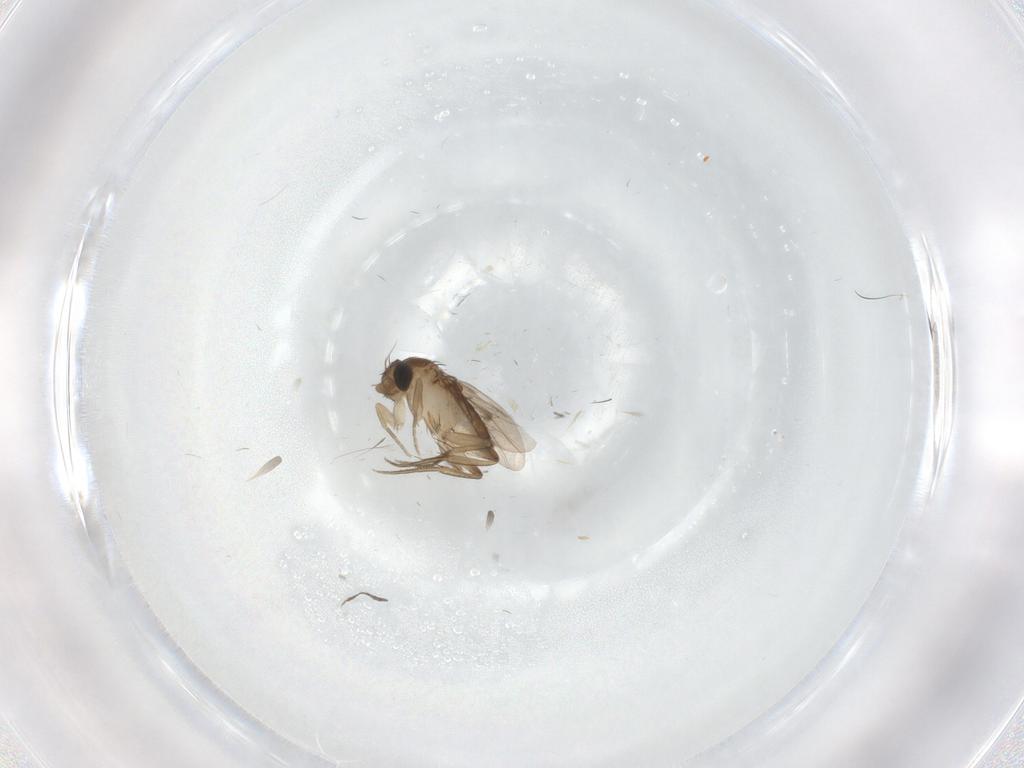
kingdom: Animalia
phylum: Arthropoda
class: Insecta
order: Diptera
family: Phoridae
